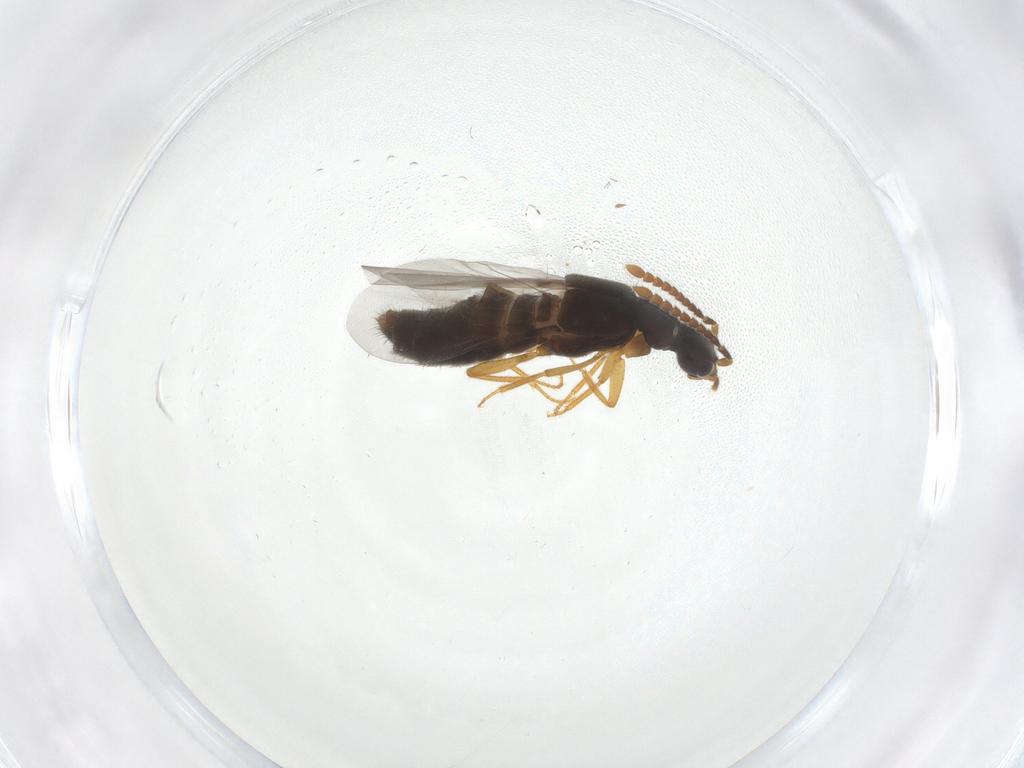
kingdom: Animalia
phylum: Arthropoda
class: Insecta
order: Coleoptera
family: Staphylinidae
